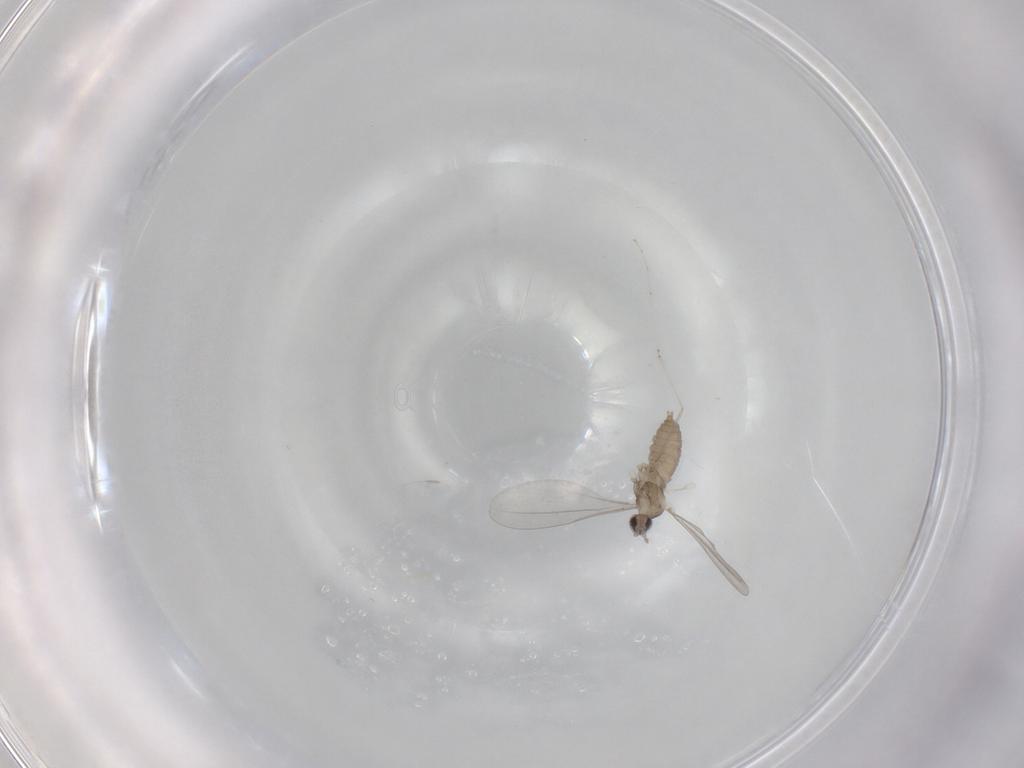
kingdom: Animalia
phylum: Arthropoda
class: Insecta
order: Diptera
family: Cecidomyiidae
